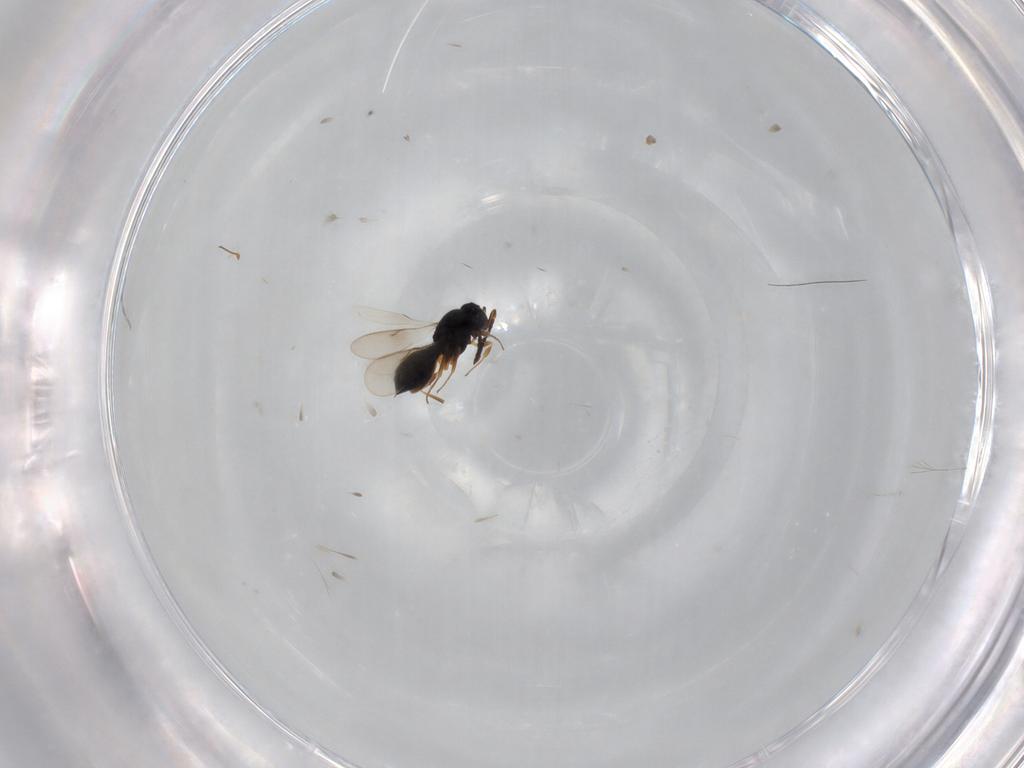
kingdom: Animalia
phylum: Arthropoda
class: Insecta
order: Hymenoptera
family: Scelionidae
